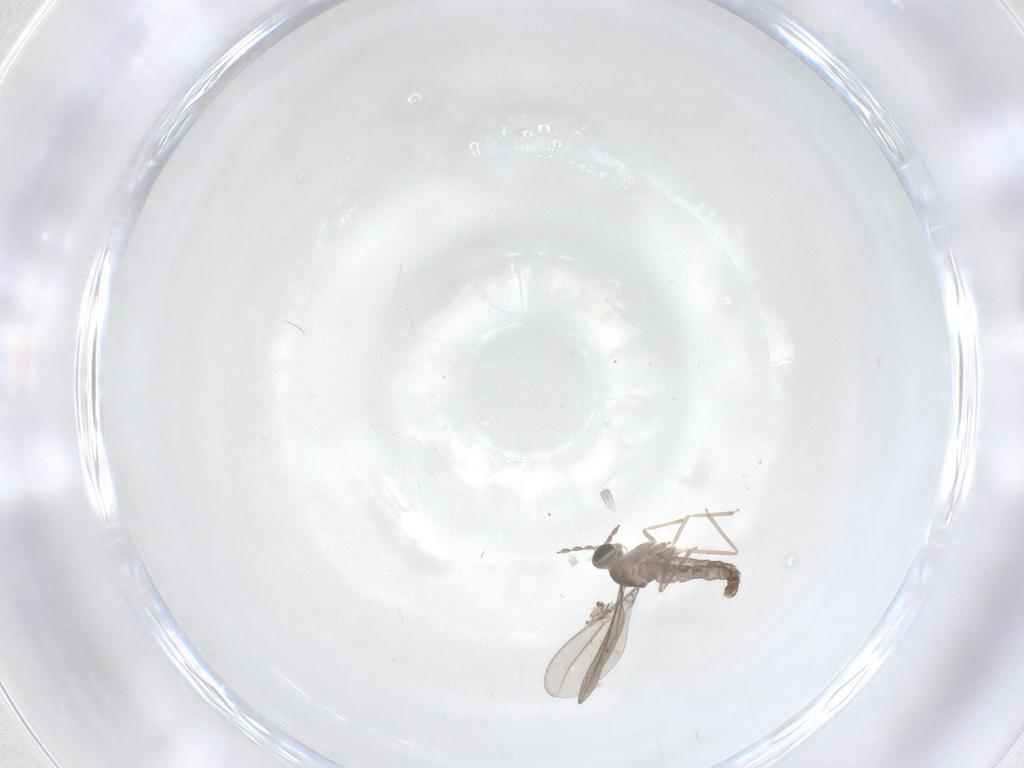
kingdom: Animalia
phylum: Arthropoda
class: Insecta
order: Diptera
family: Cecidomyiidae
